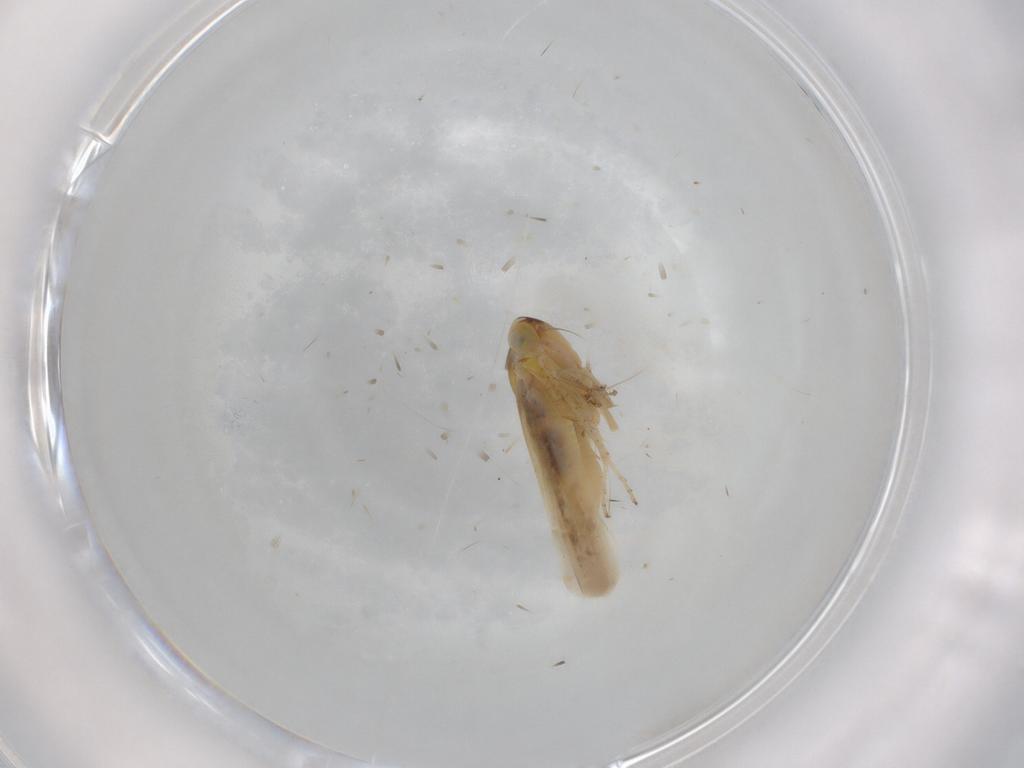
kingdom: Animalia
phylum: Arthropoda
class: Insecta
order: Hemiptera
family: Cicadellidae
